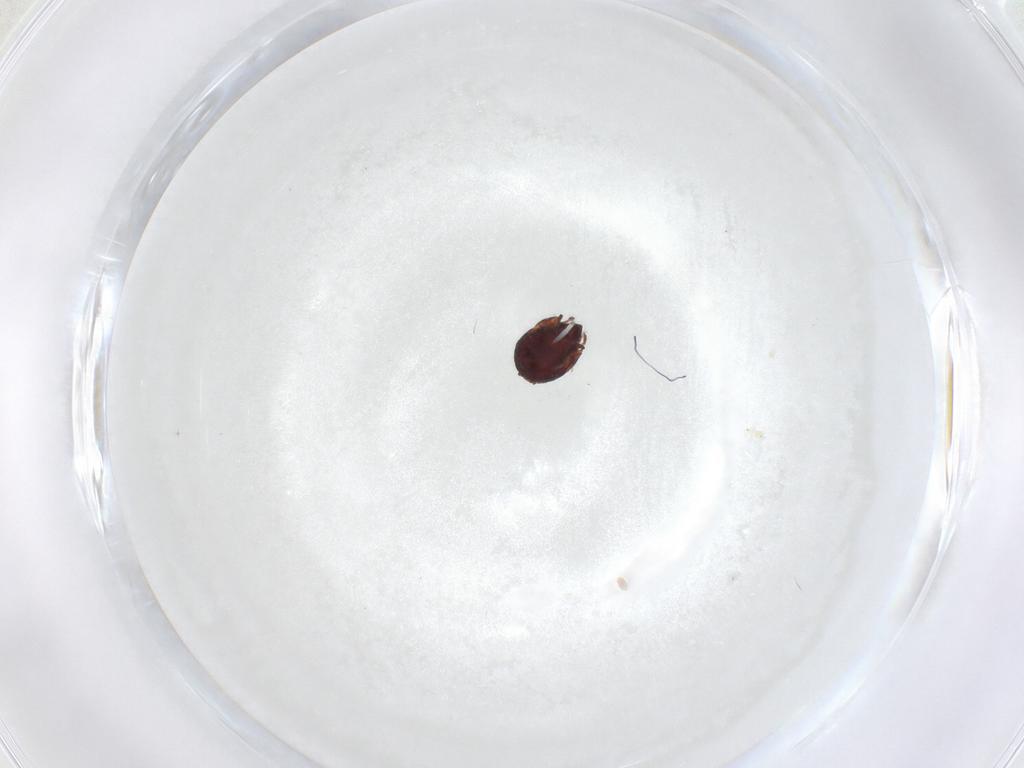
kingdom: Animalia
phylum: Arthropoda
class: Arachnida
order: Sarcoptiformes
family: Humerobatidae
